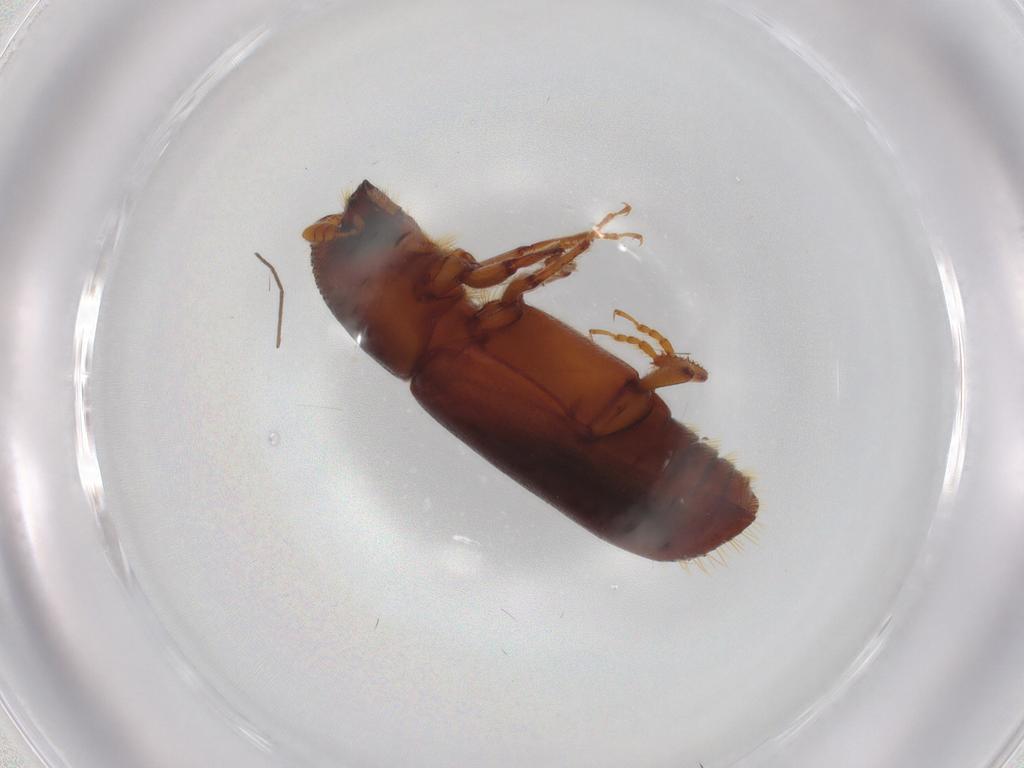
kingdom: Animalia
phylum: Arthropoda
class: Insecta
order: Coleoptera
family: Curculionidae
